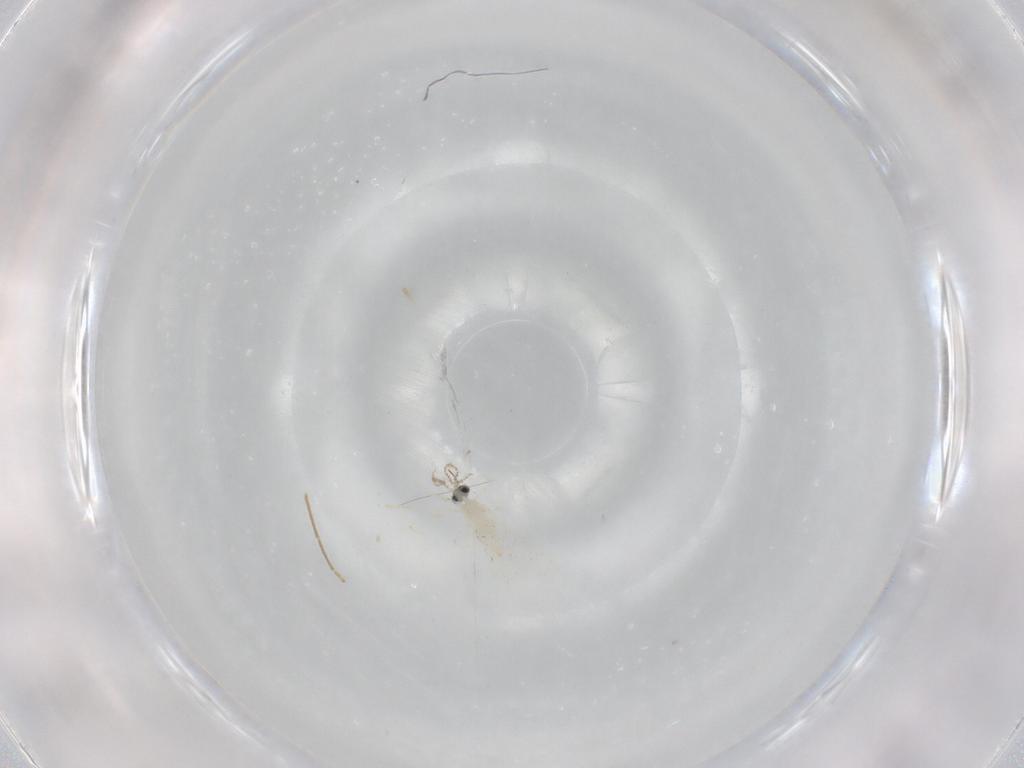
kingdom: Animalia
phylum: Arthropoda
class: Insecta
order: Diptera
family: Cecidomyiidae
